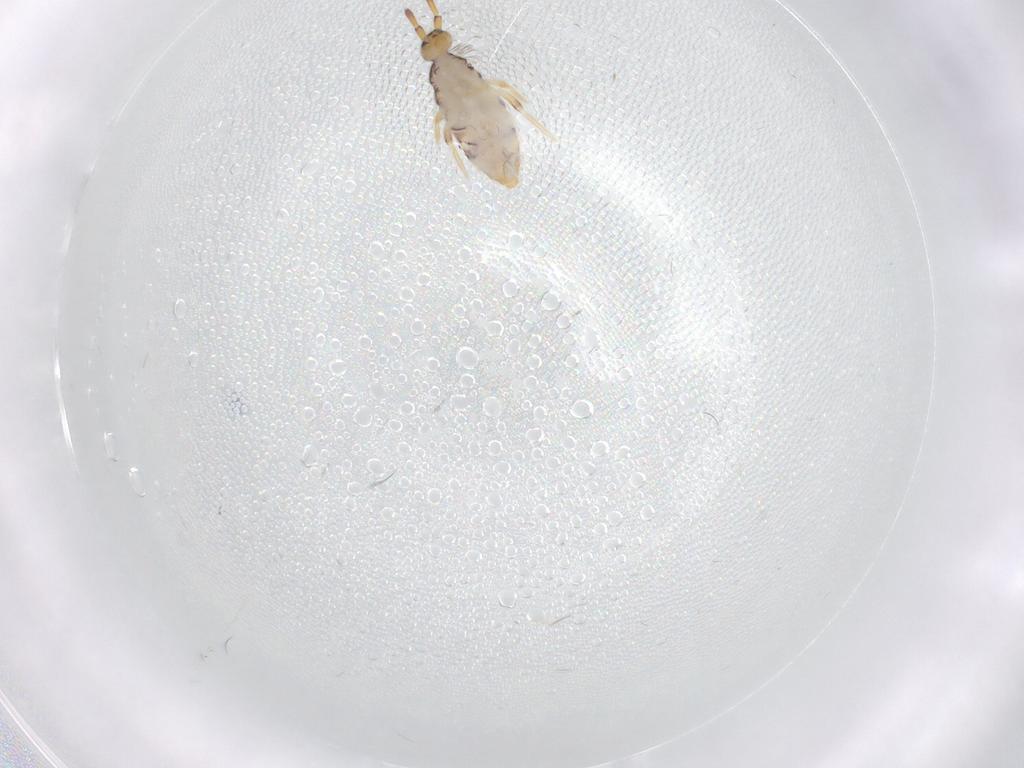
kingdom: Animalia
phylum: Arthropoda
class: Collembola
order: Entomobryomorpha
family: Entomobryidae
